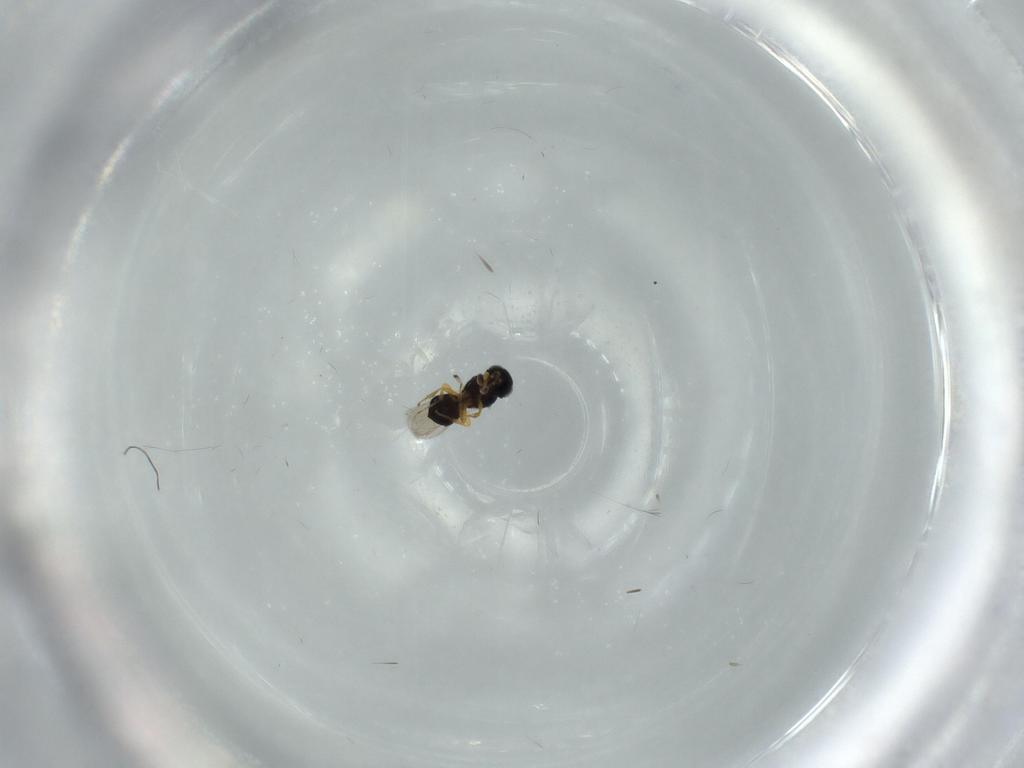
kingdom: Animalia
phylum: Arthropoda
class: Insecta
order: Hymenoptera
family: Scelionidae
